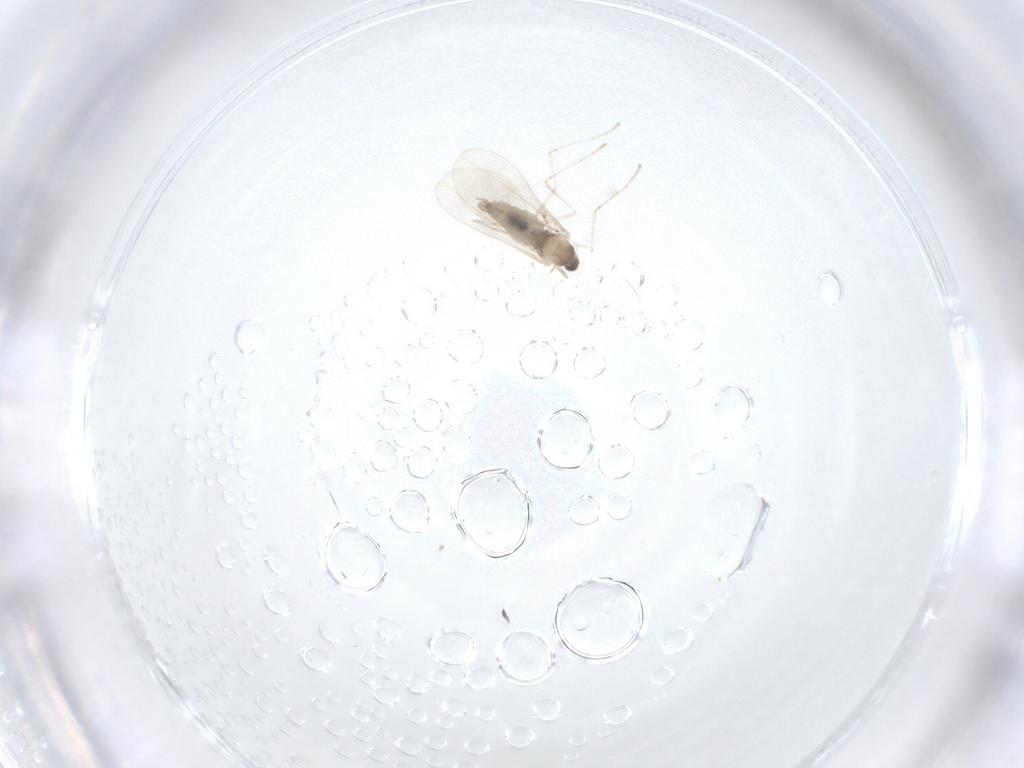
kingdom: Animalia
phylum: Arthropoda
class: Insecta
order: Diptera
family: Cecidomyiidae
